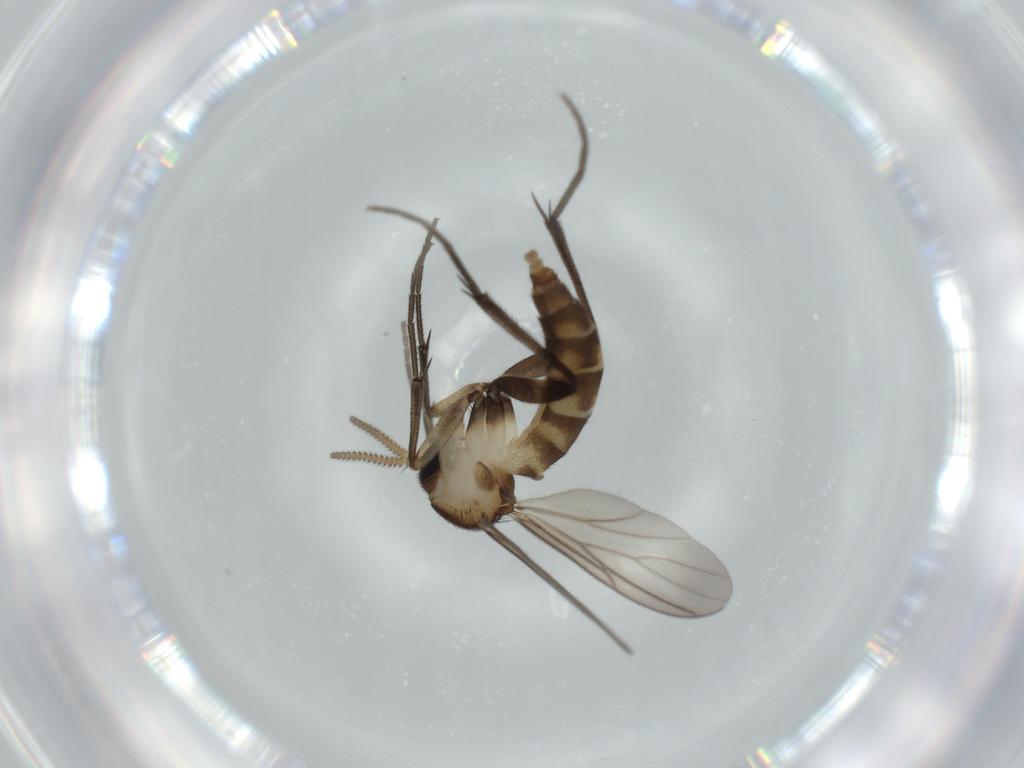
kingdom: Animalia
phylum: Arthropoda
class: Insecta
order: Diptera
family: Mycetophilidae
